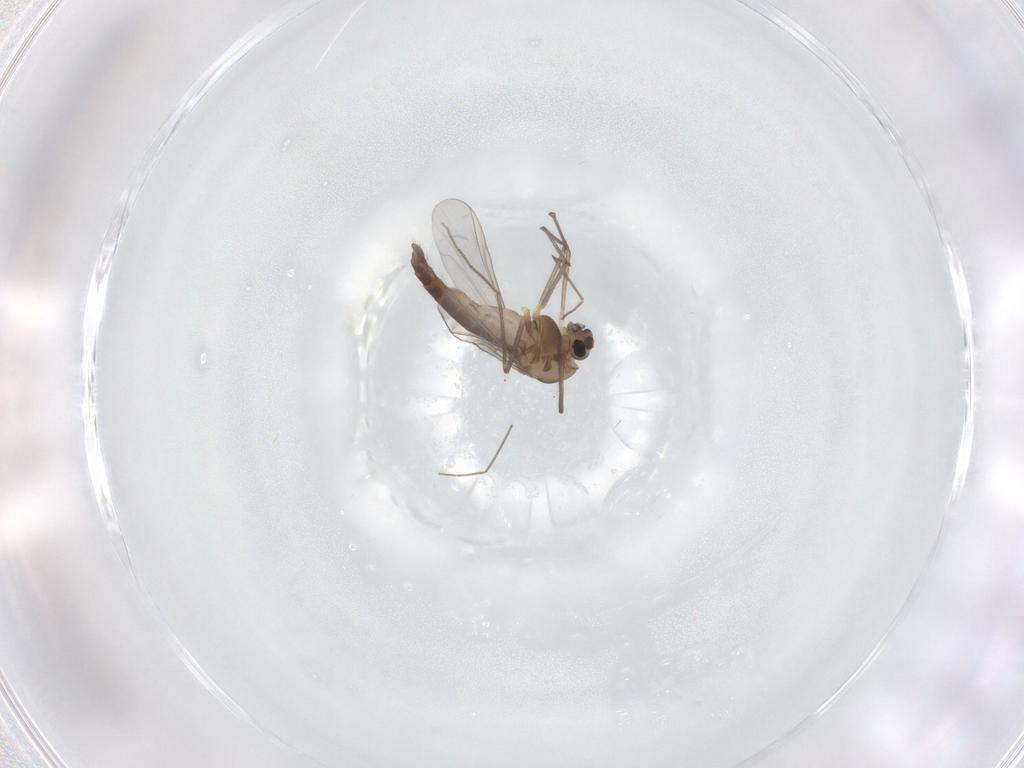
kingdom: Animalia
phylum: Arthropoda
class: Insecta
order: Diptera
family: Chironomidae
